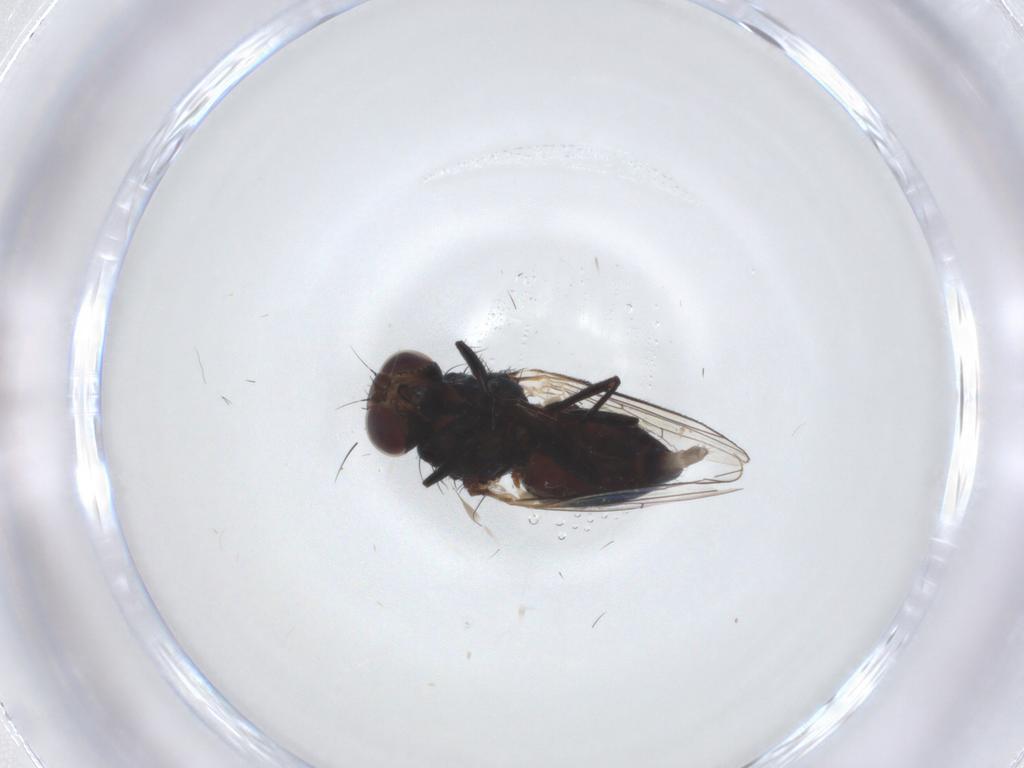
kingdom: Animalia
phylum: Arthropoda
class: Insecta
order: Diptera
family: Carnidae
